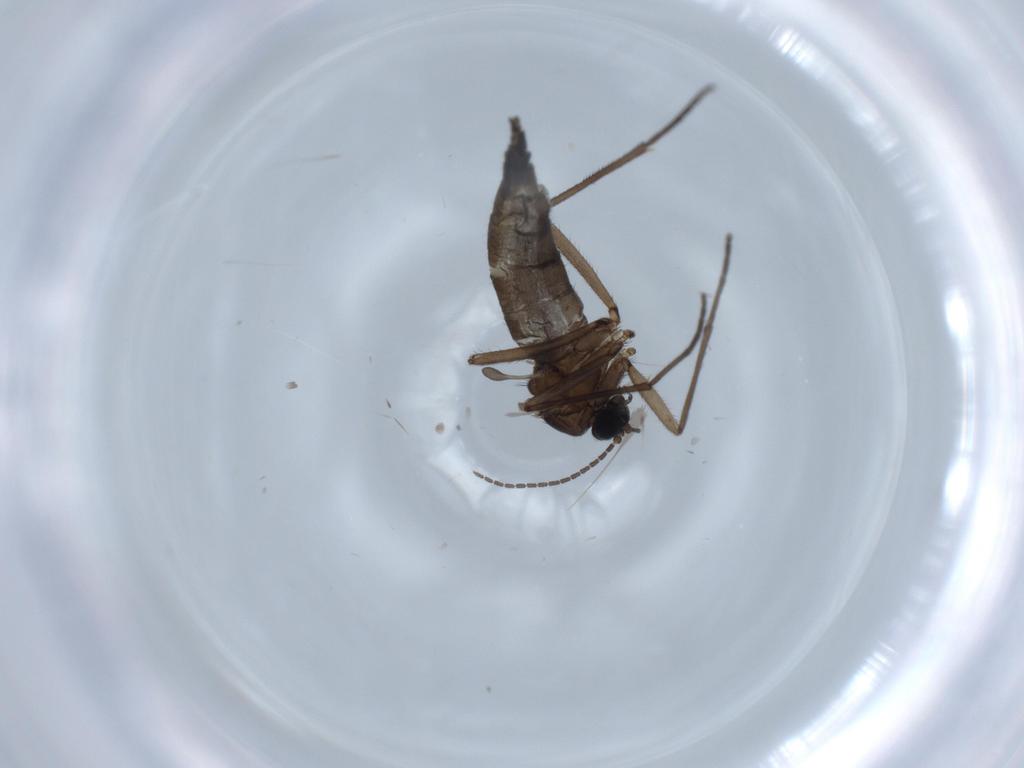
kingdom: Animalia
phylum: Arthropoda
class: Insecta
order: Diptera
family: Sciaridae
